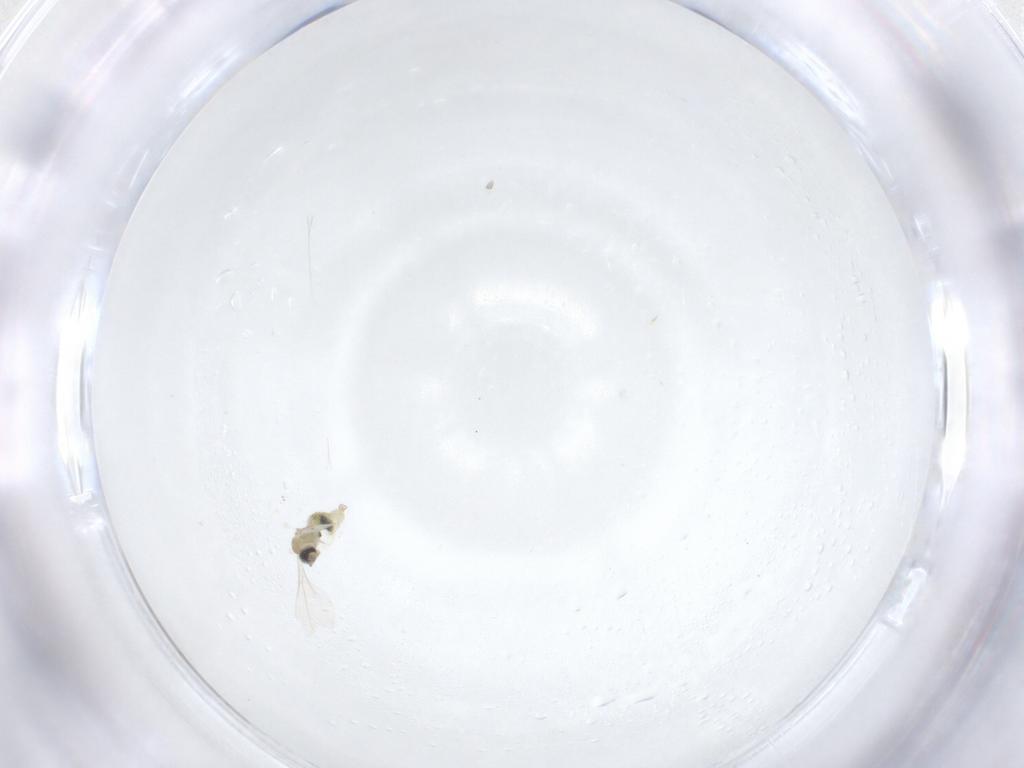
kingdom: Animalia
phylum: Arthropoda
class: Insecta
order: Diptera
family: Ceratopogonidae
